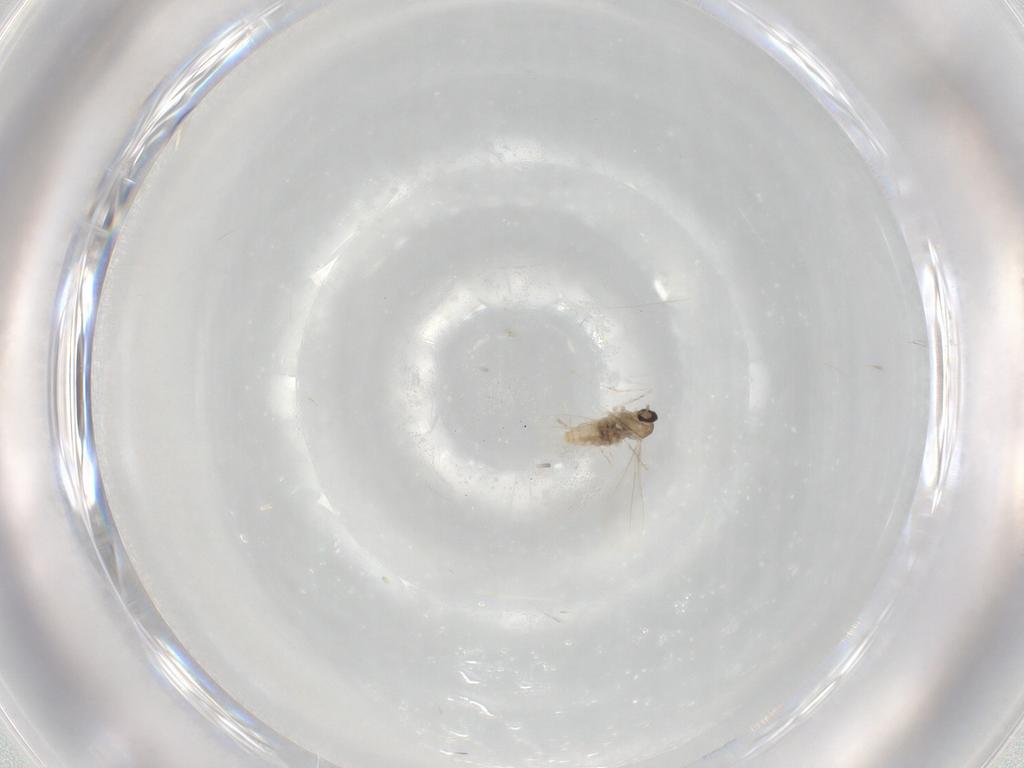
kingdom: Animalia
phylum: Arthropoda
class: Insecta
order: Diptera
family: Cecidomyiidae
